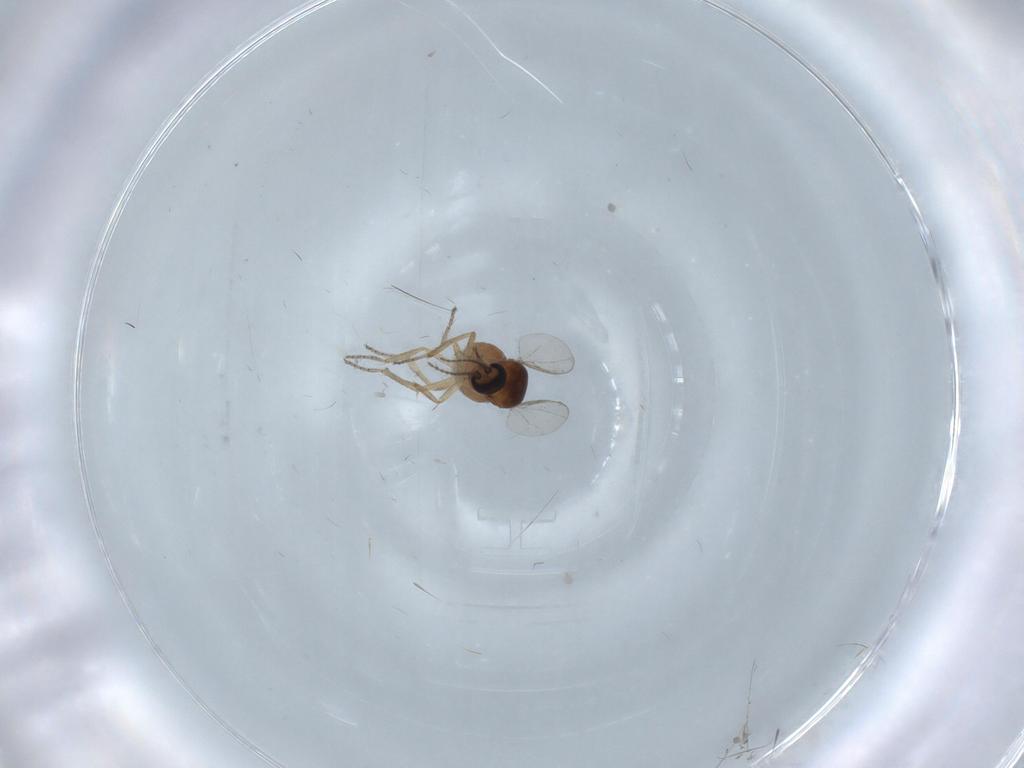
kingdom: Animalia
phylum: Arthropoda
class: Insecta
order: Diptera
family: Ceratopogonidae
